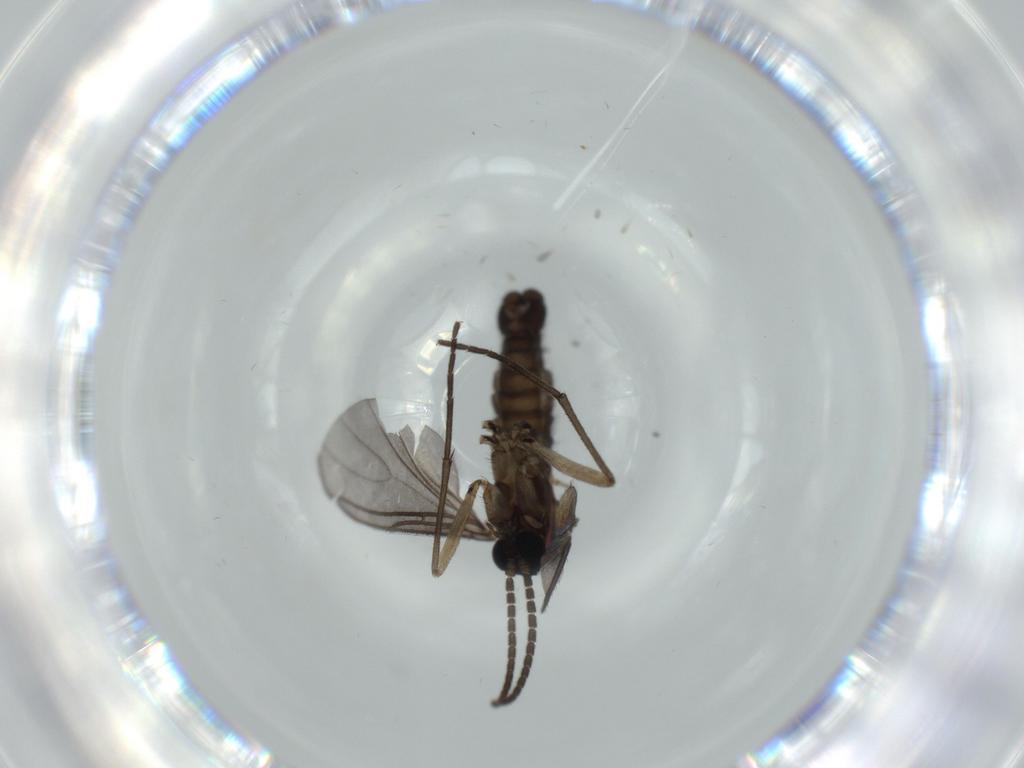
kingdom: Animalia
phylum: Arthropoda
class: Insecta
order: Diptera
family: Sciaridae
